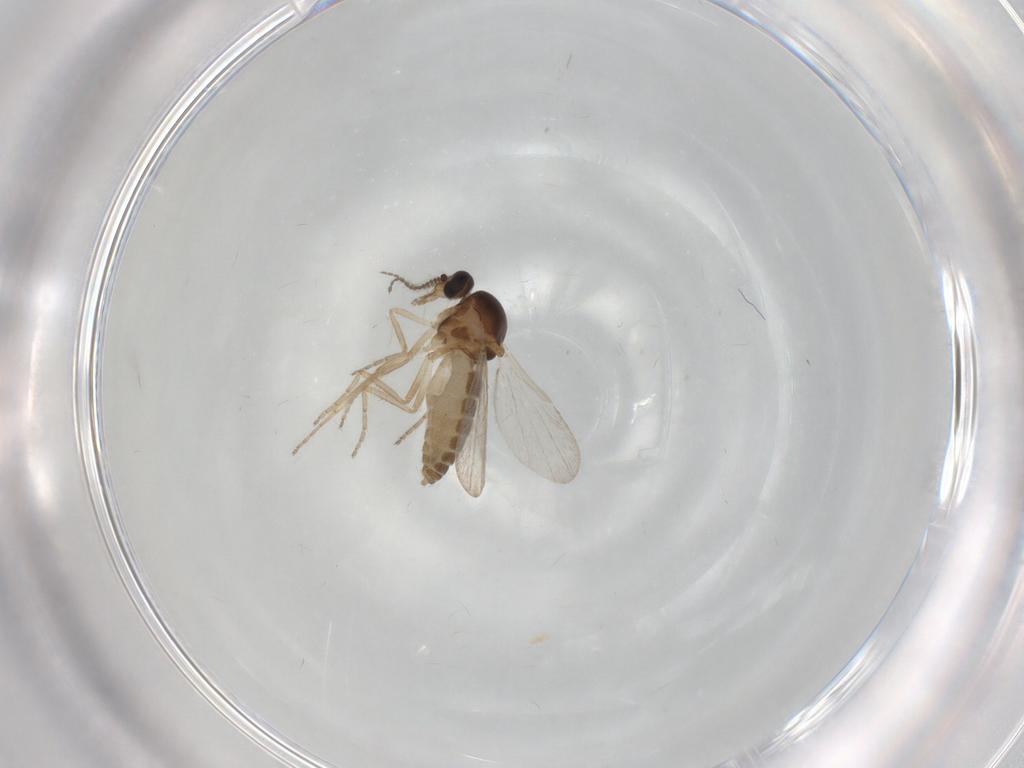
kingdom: Animalia
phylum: Arthropoda
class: Insecta
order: Diptera
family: Ceratopogonidae
